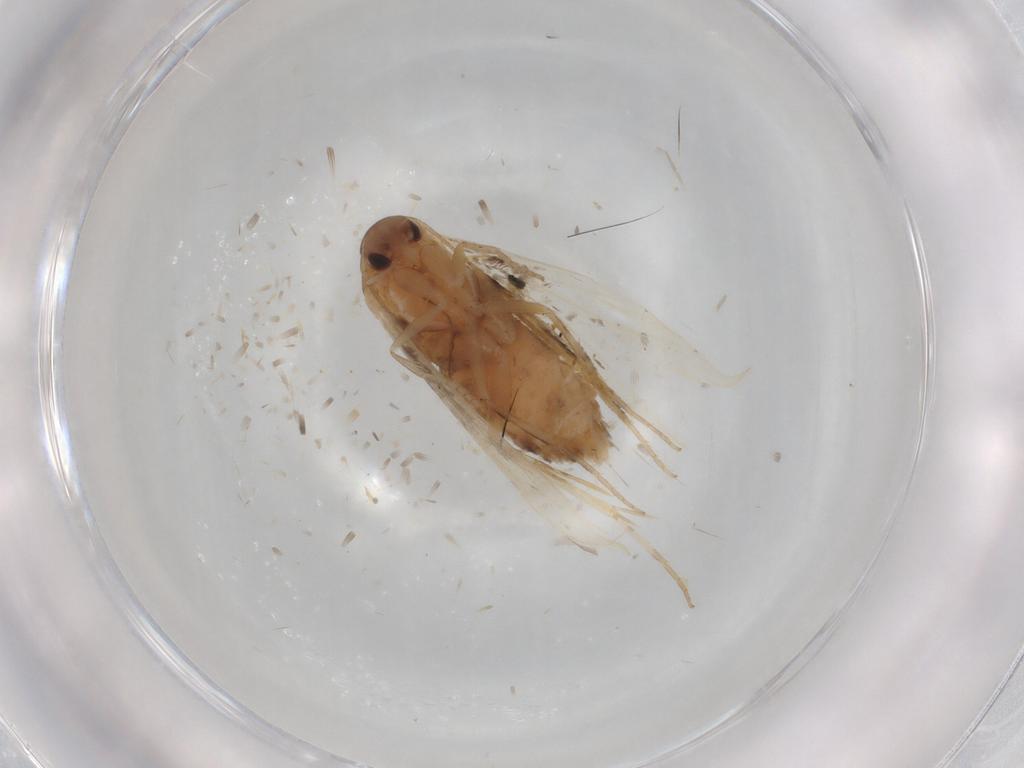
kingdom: Animalia
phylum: Arthropoda
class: Insecta
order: Lepidoptera
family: Elachistidae
